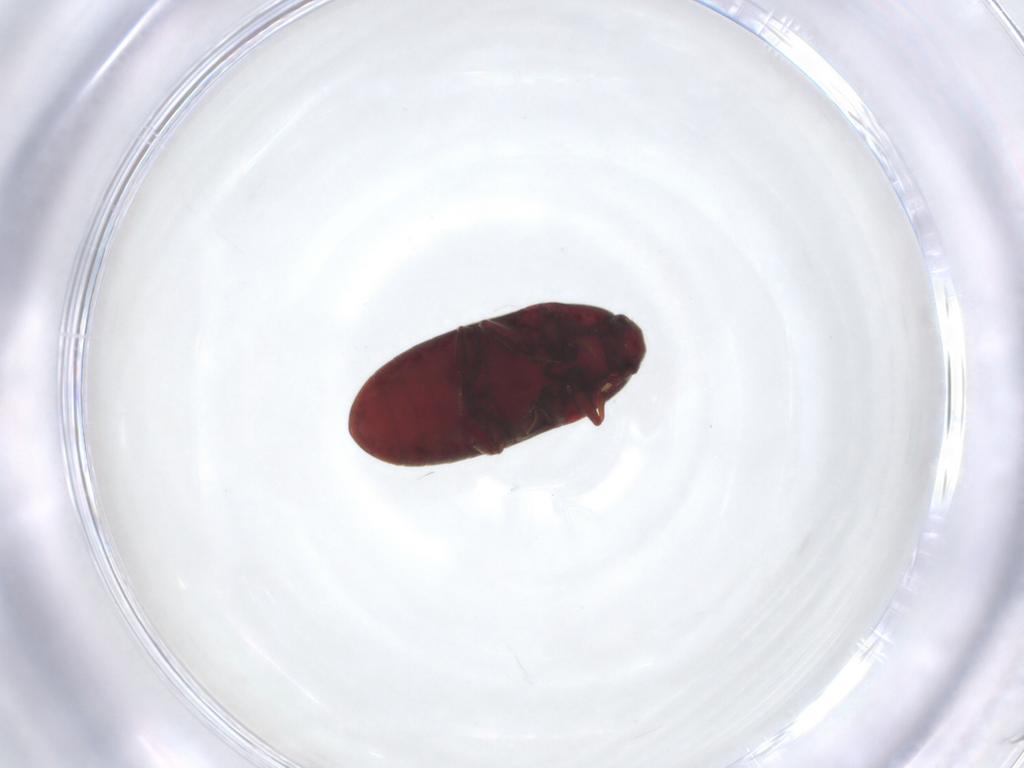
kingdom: Animalia
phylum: Arthropoda
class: Insecta
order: Coleoptera
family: Throscidae
